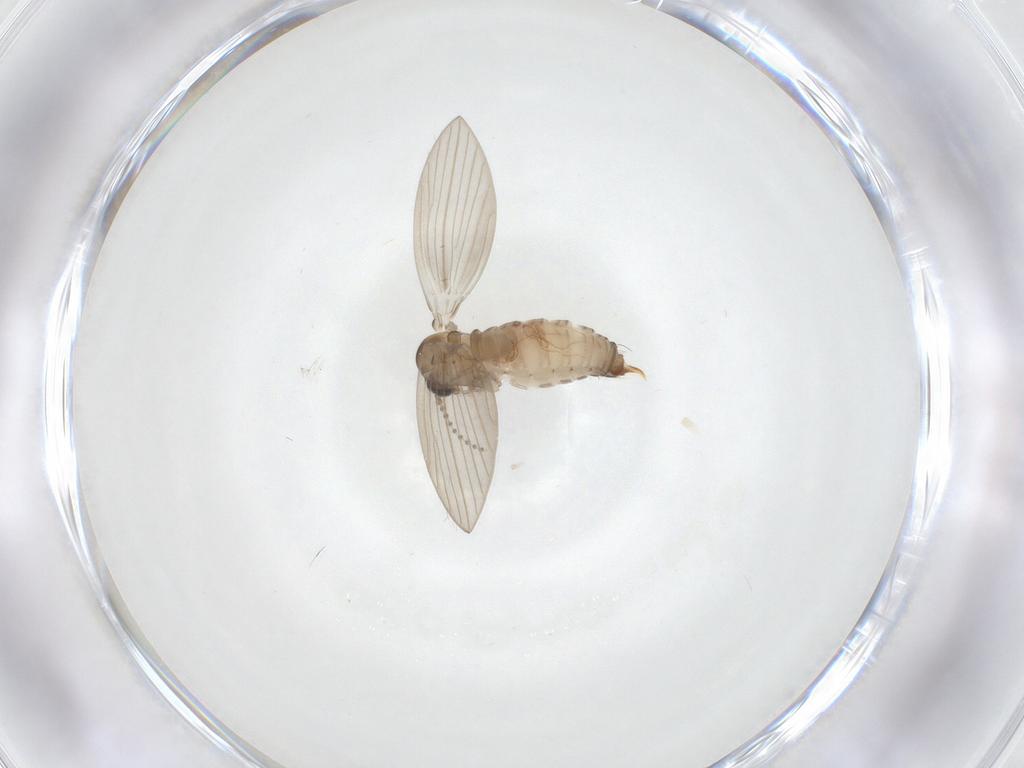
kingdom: Animalia
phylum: Arthropoda
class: Insecta
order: Diptera
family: Psychodidae
